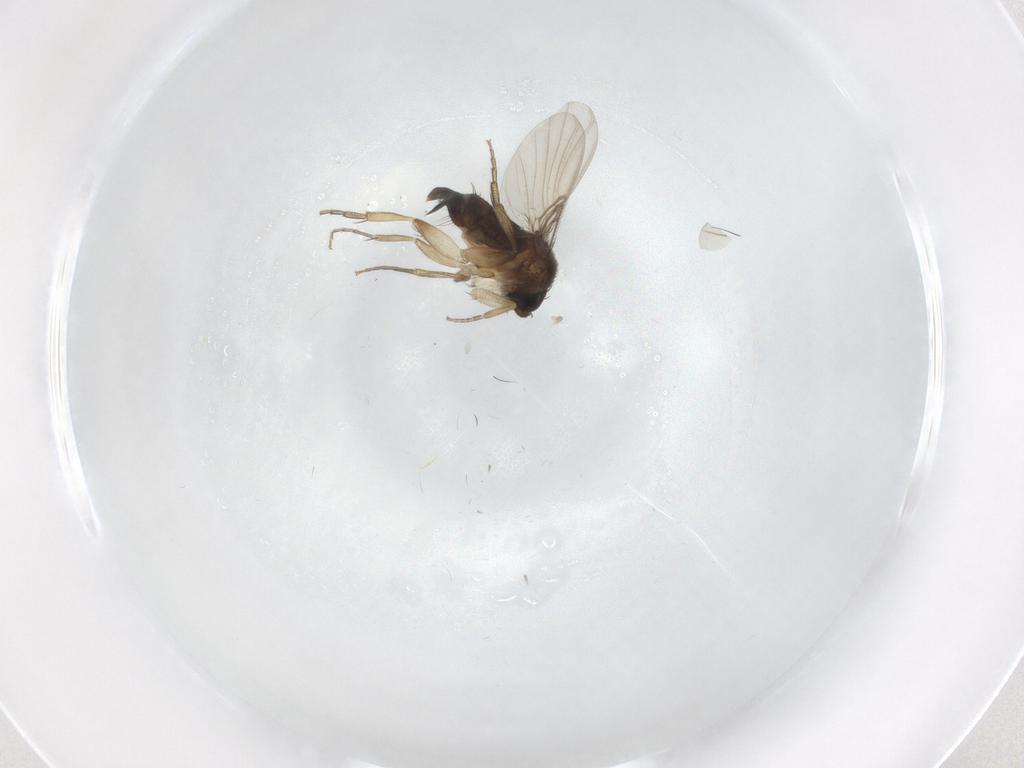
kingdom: Animalia
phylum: Arthropoda
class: Insecta
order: Diptera
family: Phoridae
